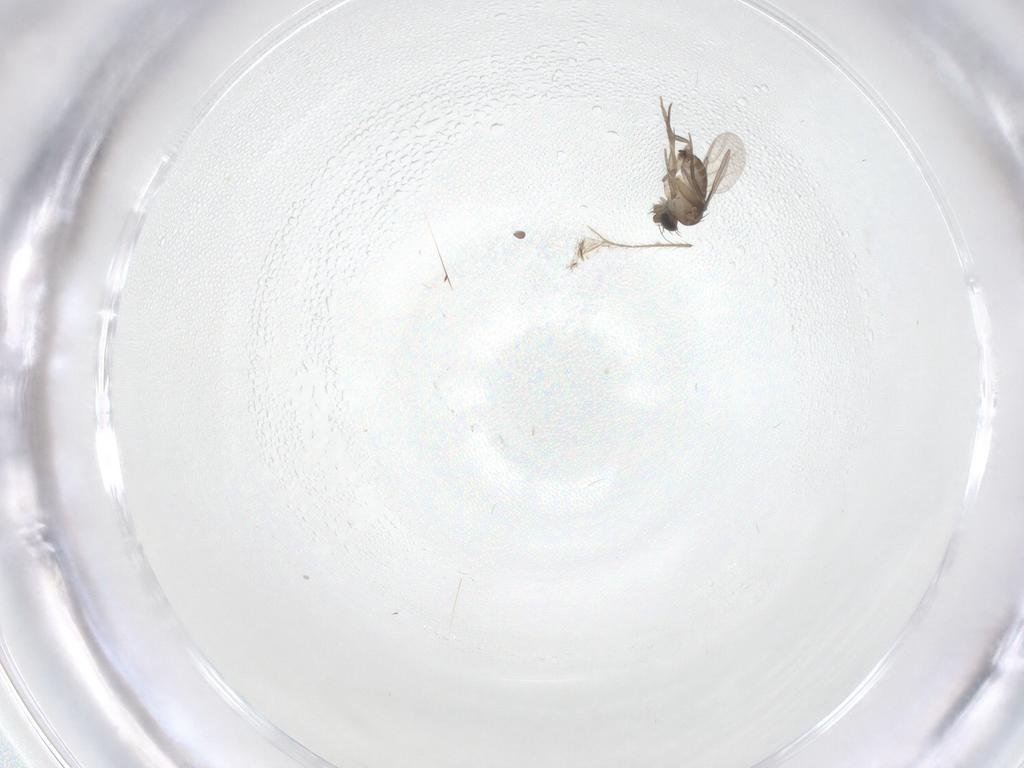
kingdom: Animalia
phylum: Arthropoda
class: Insecta
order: Diptera
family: Phoridae
